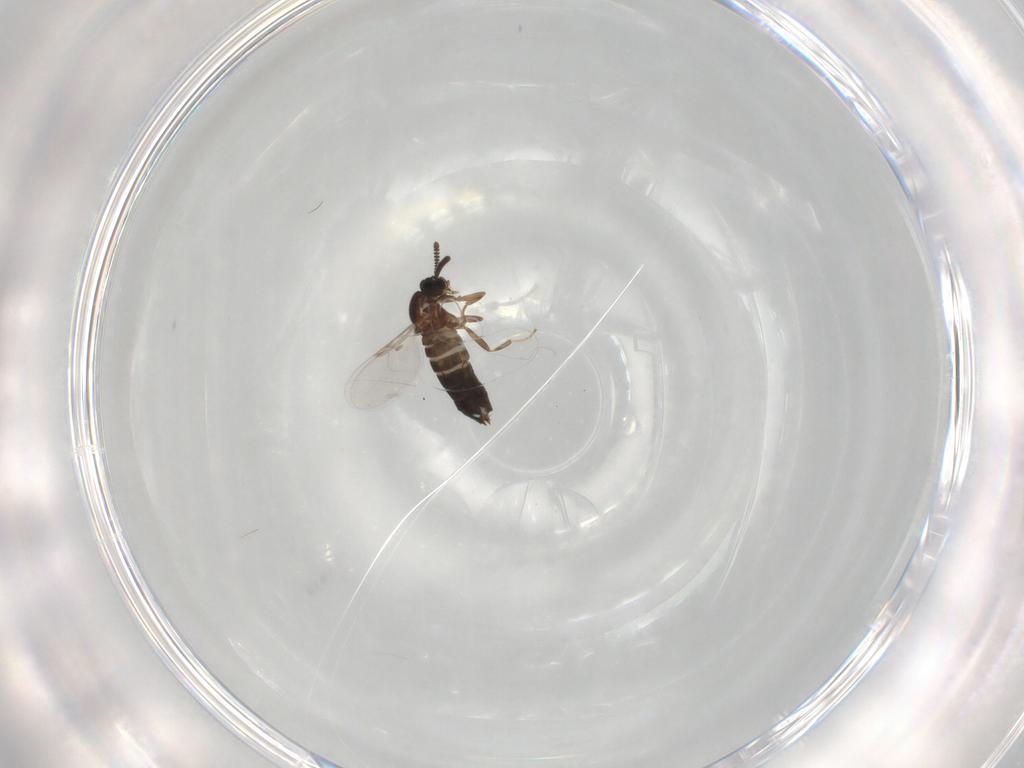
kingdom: Animalia
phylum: Arthropoda
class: Insecta
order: Diptera
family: Scatopsidae
